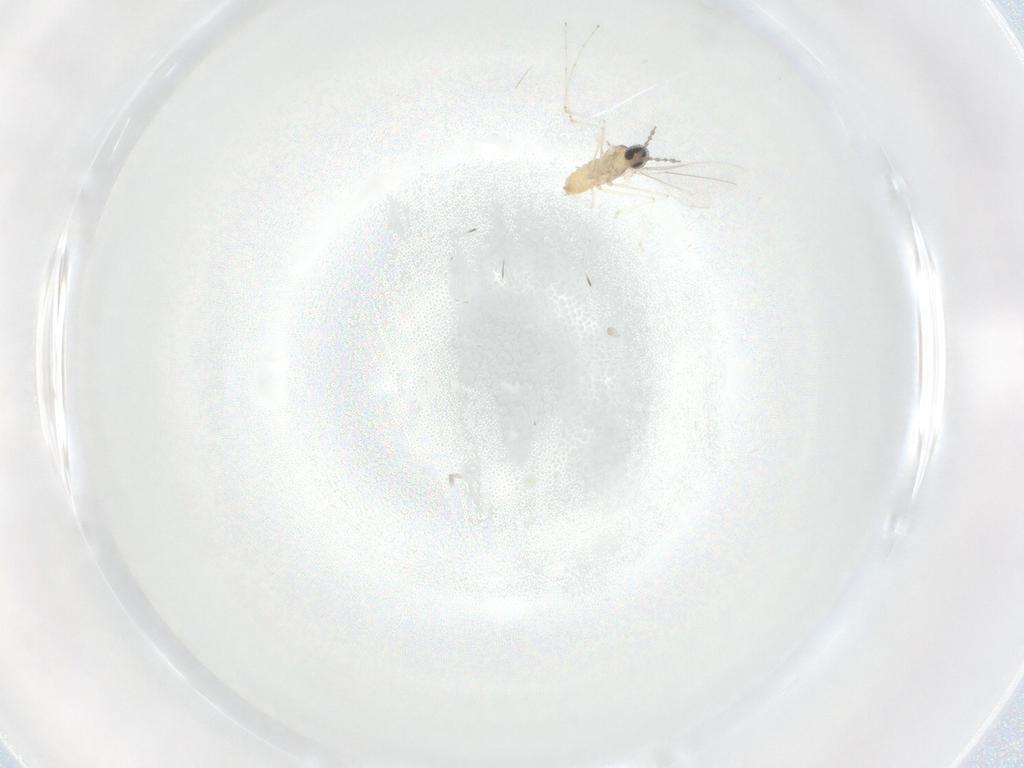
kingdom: Animalia
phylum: Arthropoda
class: Insecta
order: Diptera
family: Cecidomyiidae
